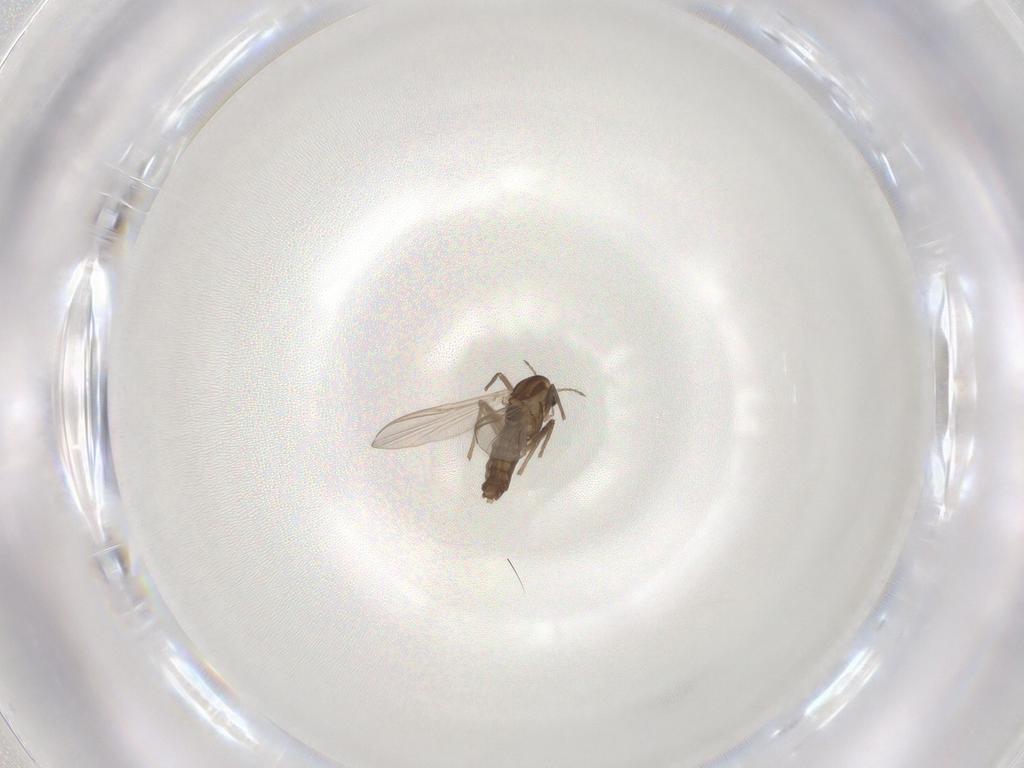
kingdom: Animalia
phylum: Arthropoda
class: Insecta
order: Diptera
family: Chironomidae
